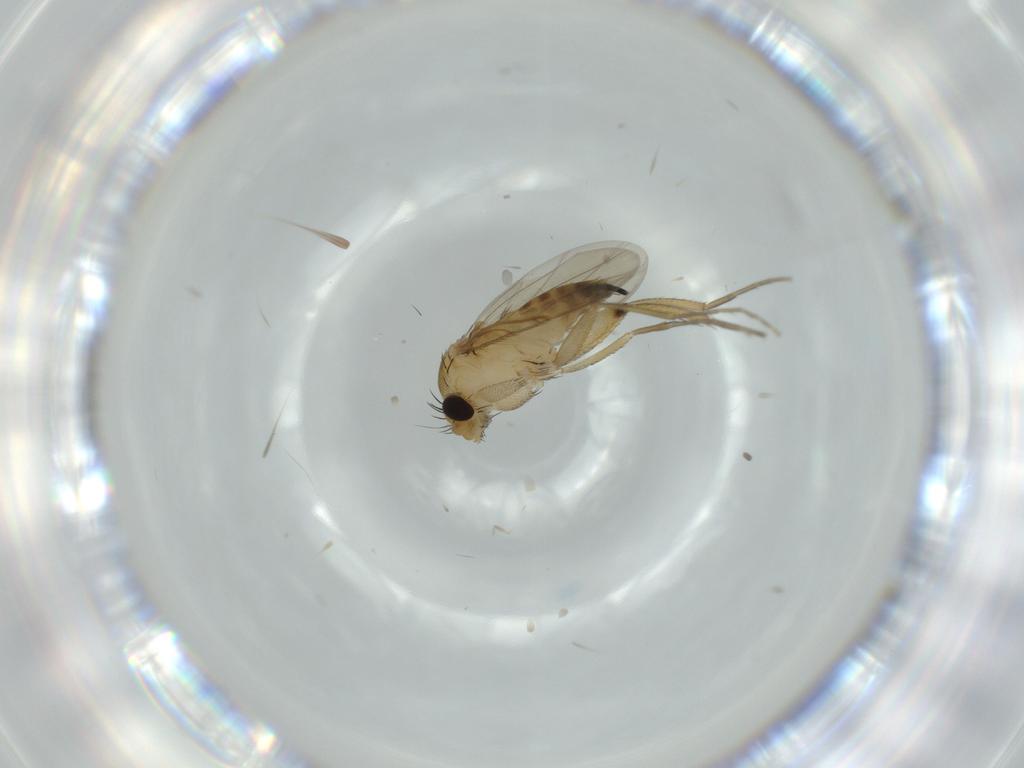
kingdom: Animalia
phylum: Arthropoda
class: Insecta
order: Diptera
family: Phoridae
